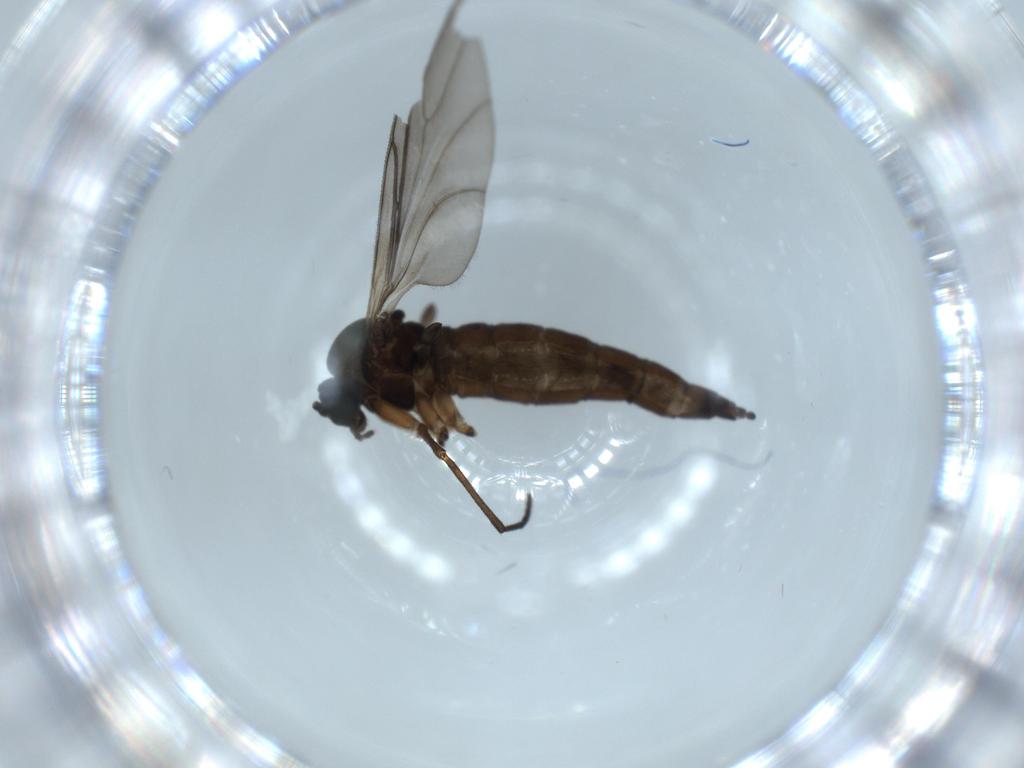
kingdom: Animalia
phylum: Arthropoda
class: Insecta
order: Diptera
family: Sciaridae
